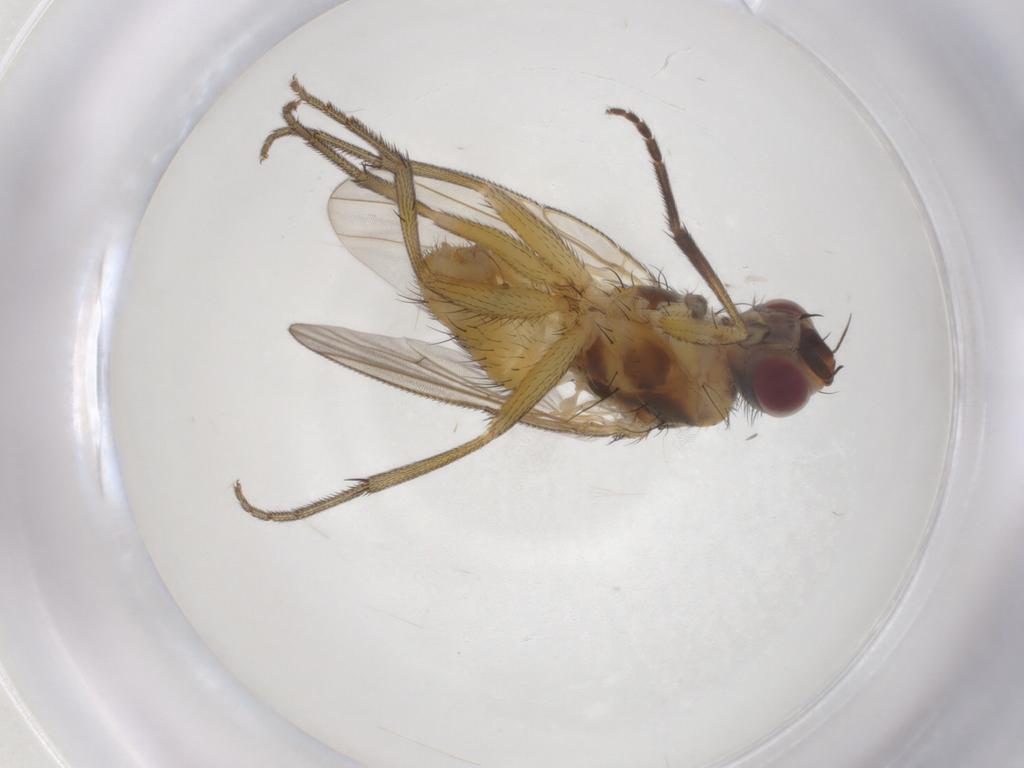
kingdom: Animalia
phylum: Arthropoda
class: Insecta
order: Diptera
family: Muscidae
